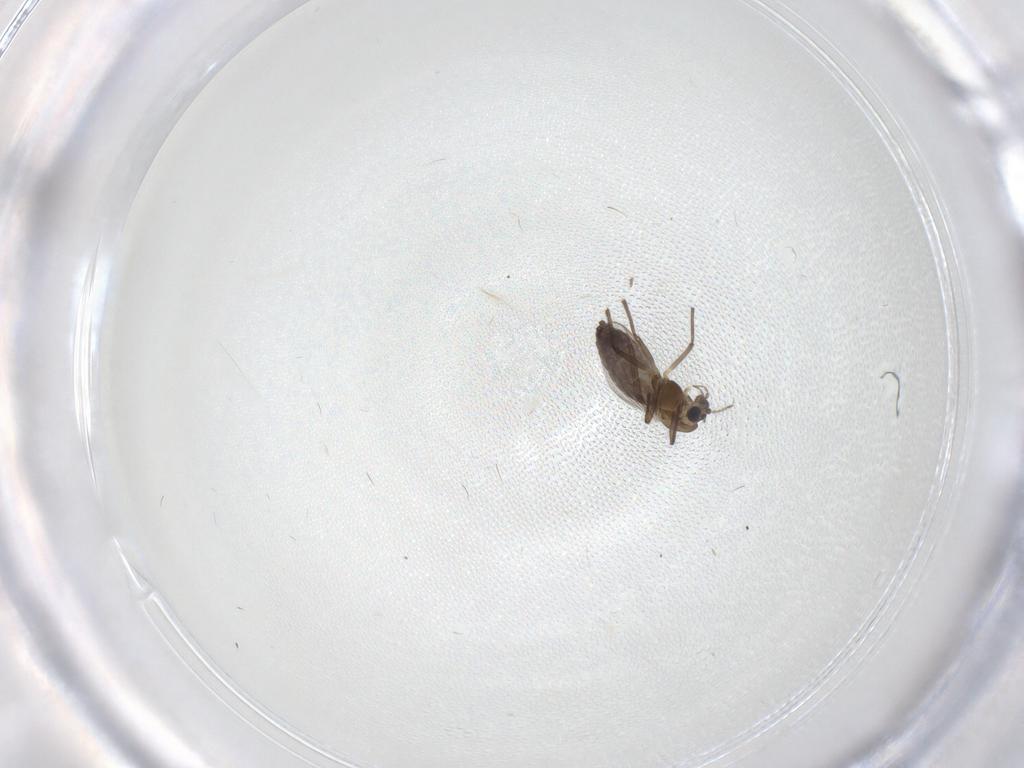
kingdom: Animalia
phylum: Arthropoda
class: Insecta
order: Diptera
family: Chironomidae
